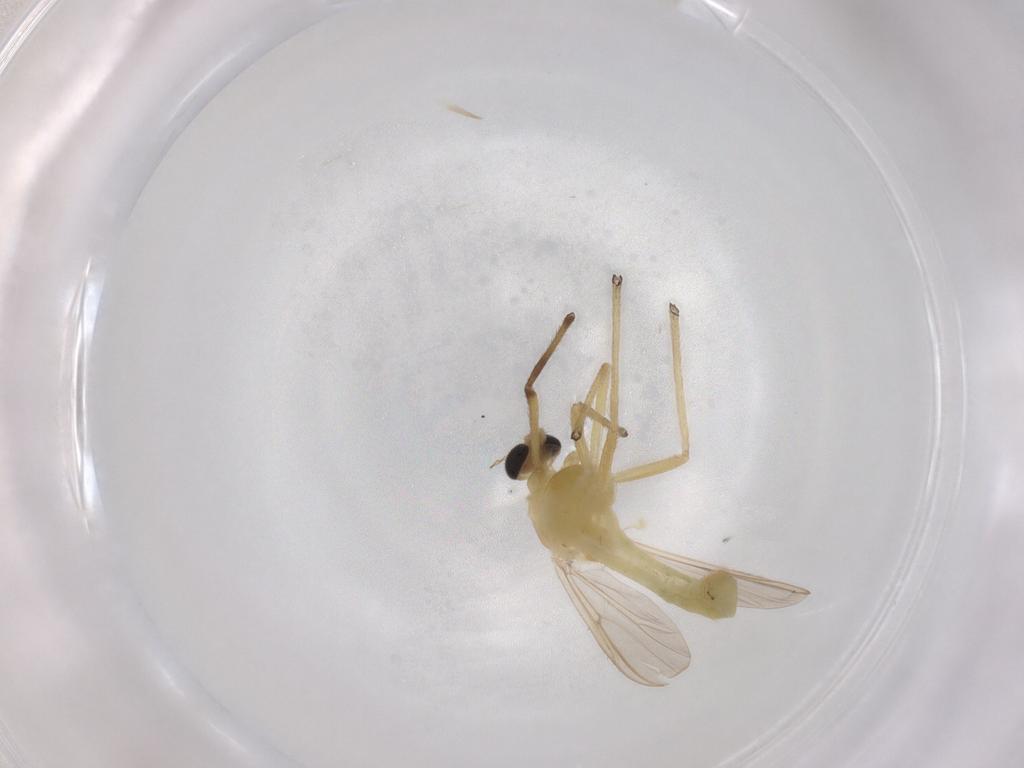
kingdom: Animalia
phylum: Arthropoda
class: Insecta
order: Diptera
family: Chironomidae
